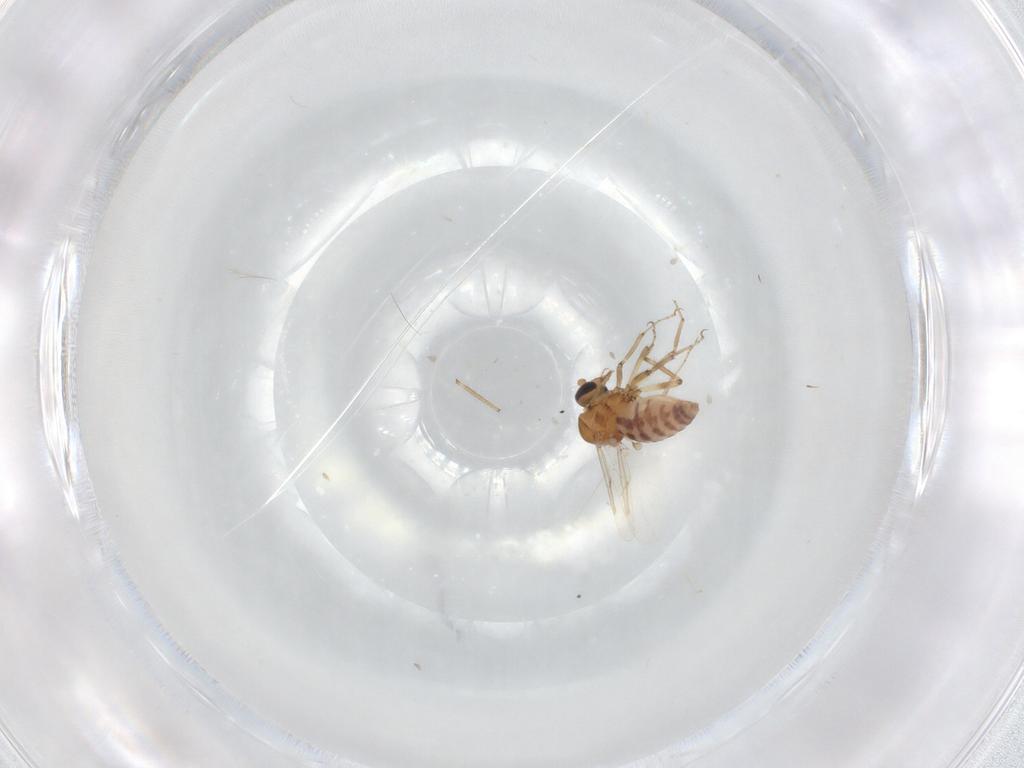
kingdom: Animalia
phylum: Arthropoda
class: Insecta
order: Diptera
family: Ceratopogonidae
